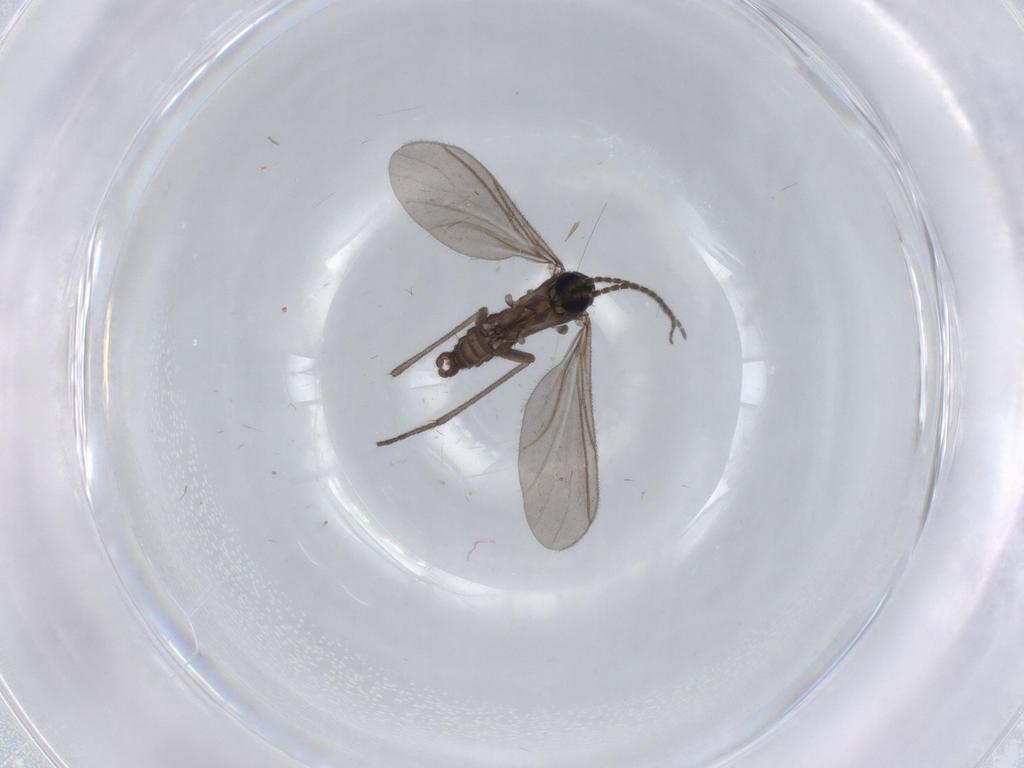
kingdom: Animalia
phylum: Arthropoda
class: Insecta
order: Diptera
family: Sciaridae
